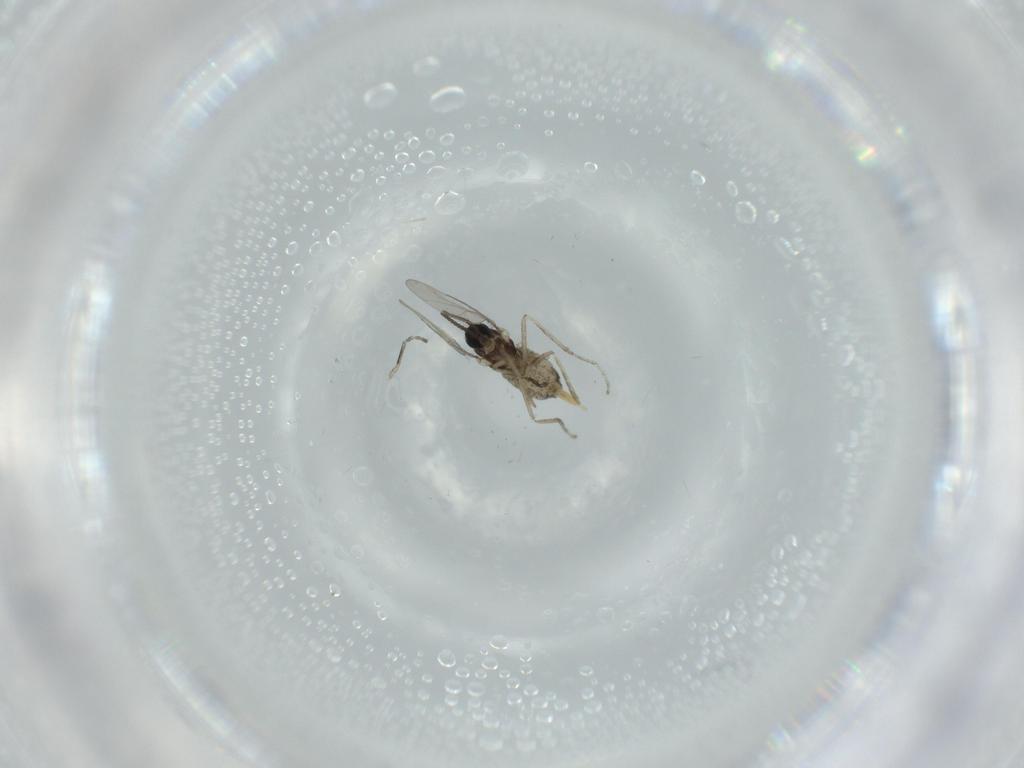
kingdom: Animalia
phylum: Arthropoda
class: Insecta
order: Diptera
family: Cecidomyiidae
